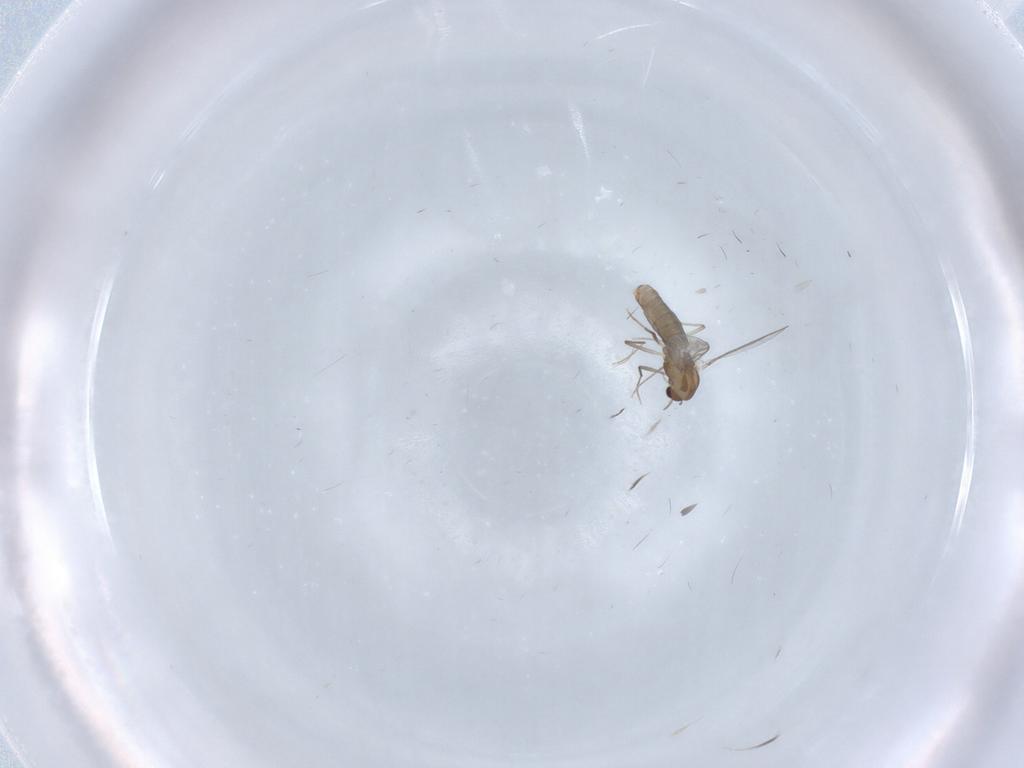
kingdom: Animalia
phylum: Arthropoda
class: Insecta
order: Diptera
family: Chironomidae
